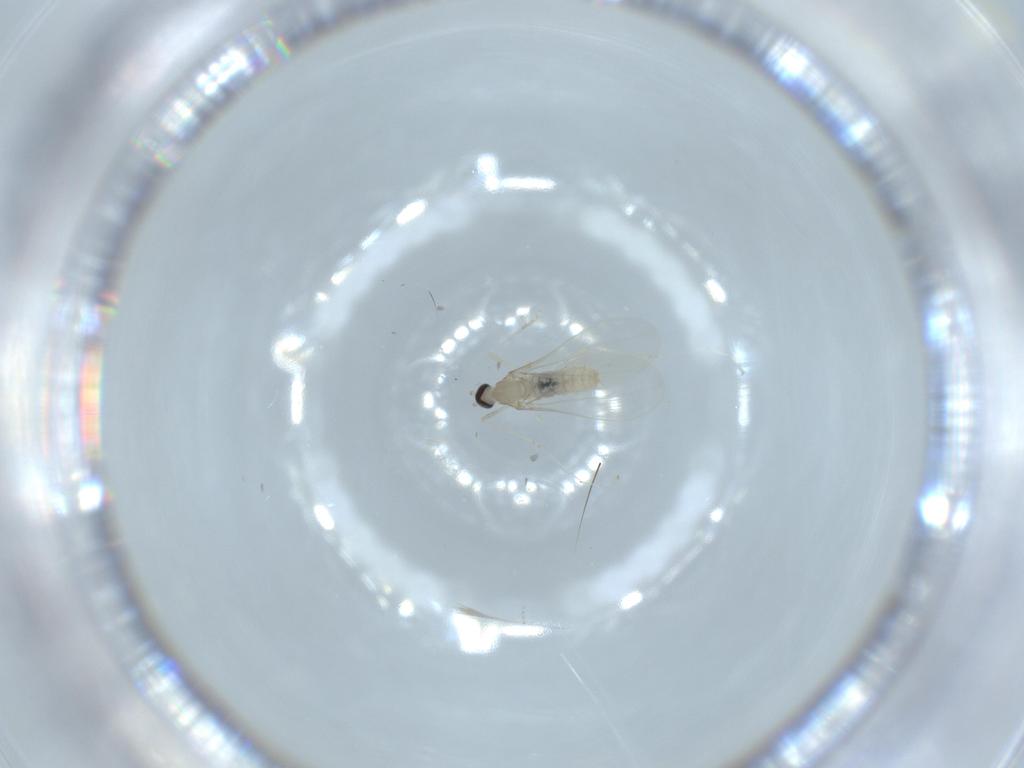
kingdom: Animalia
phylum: Arthropoda
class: Insecta
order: Diptera
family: Cecidomyiidae
